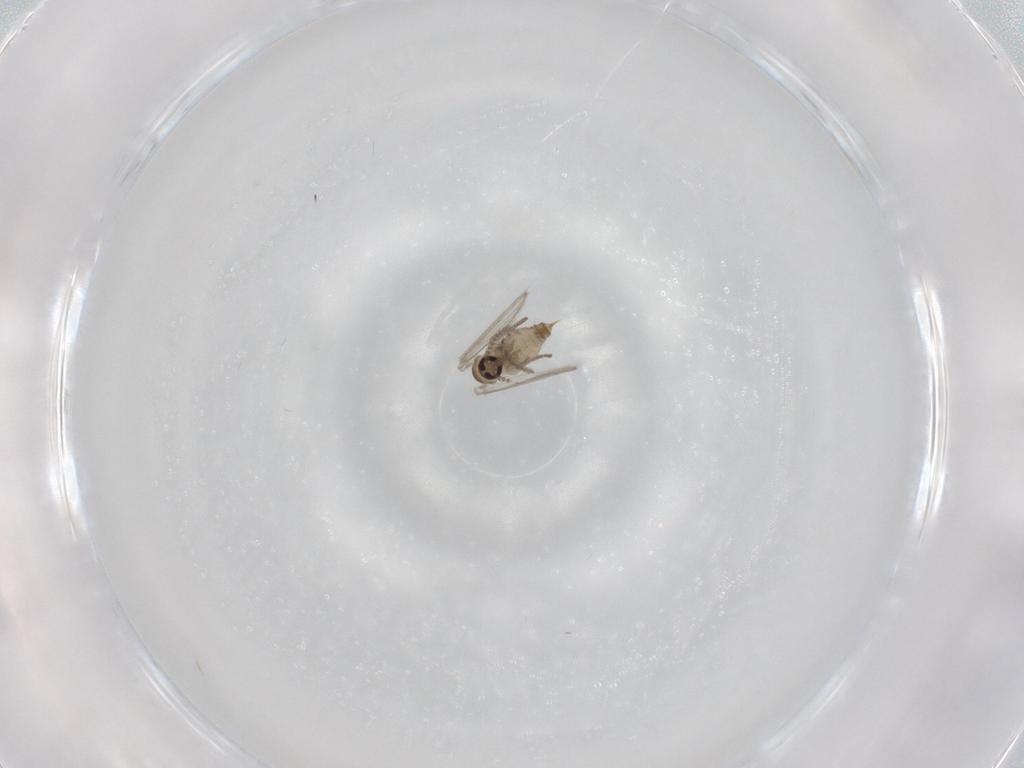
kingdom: Animalia
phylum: Arthropoda
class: Insecta
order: Diptera
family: Psychodidae
